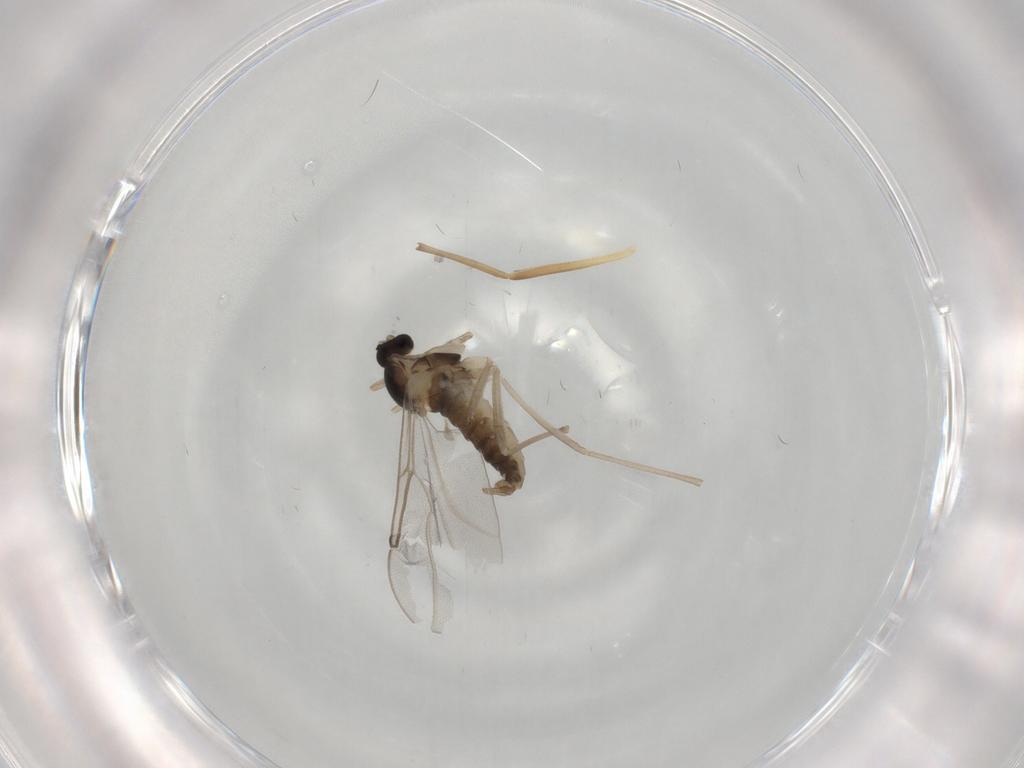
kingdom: Animalia
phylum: Arthropoda
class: Insecta
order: Diptera
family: Cecidomyiidae
